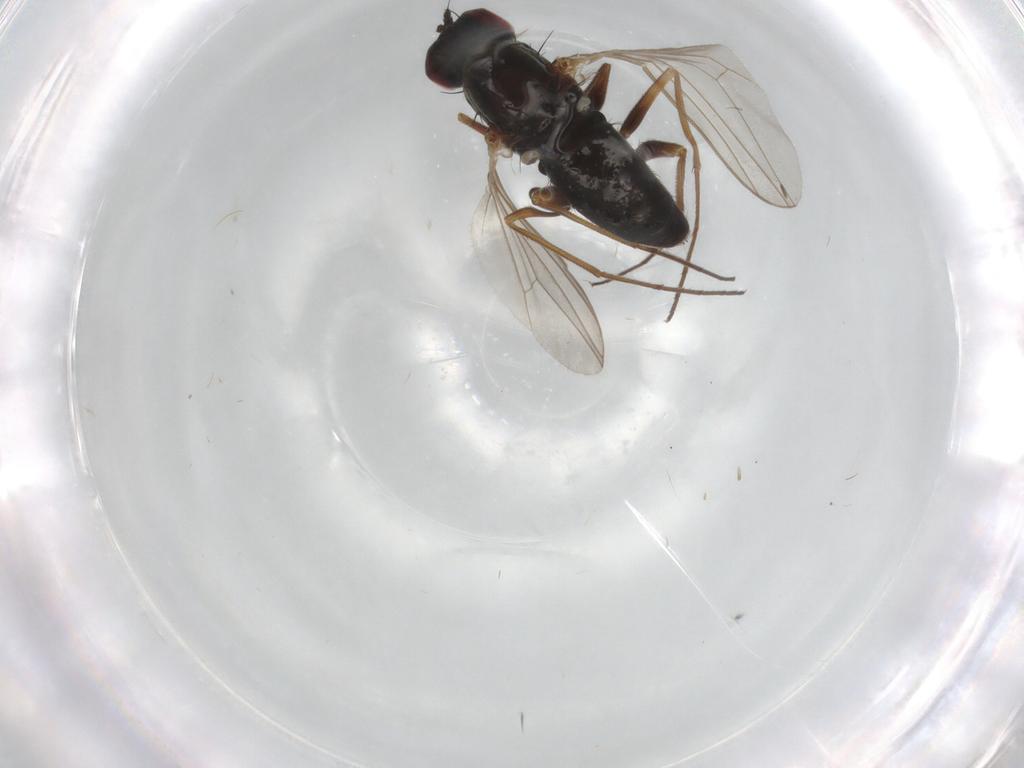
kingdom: Animalia
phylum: Arthropoda
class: Insecta
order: Diptera
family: Dolichopodidae
